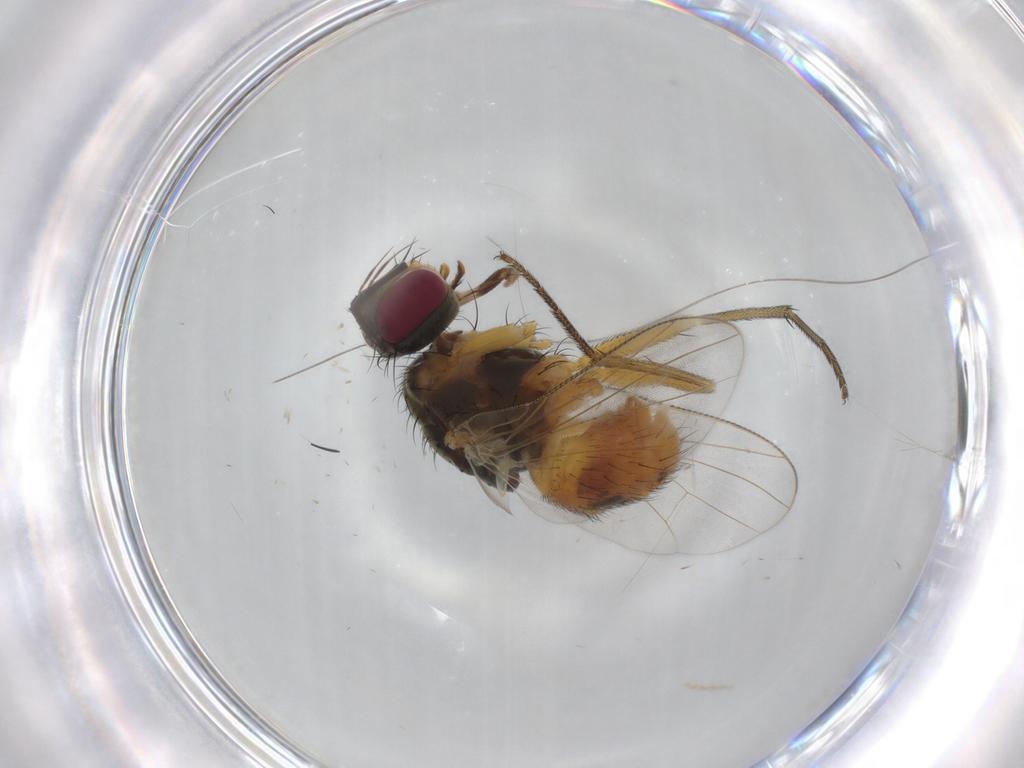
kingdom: Animalia
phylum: Arthropoda
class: Insecta
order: Diptera
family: Muscidae
